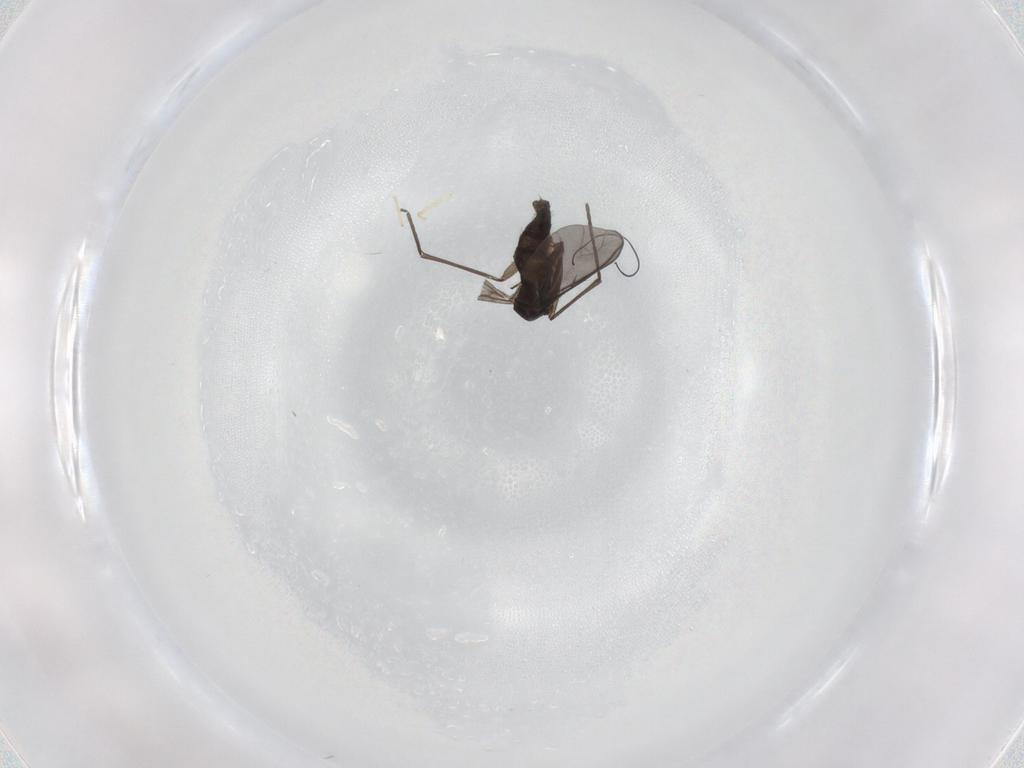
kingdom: Animalia
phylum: Arthropoda
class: Insecta
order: Diptera
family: Sciaridae
